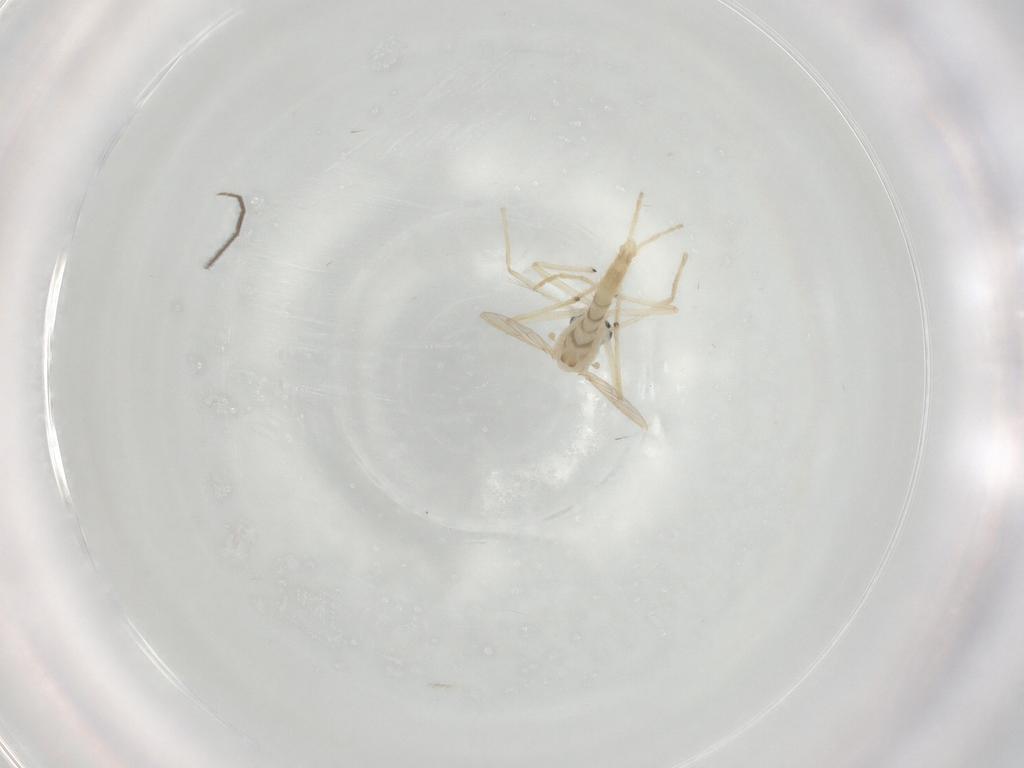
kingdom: Animalia
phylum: Arthropoda
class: Insecta
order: Diptera
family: Chironomidae
